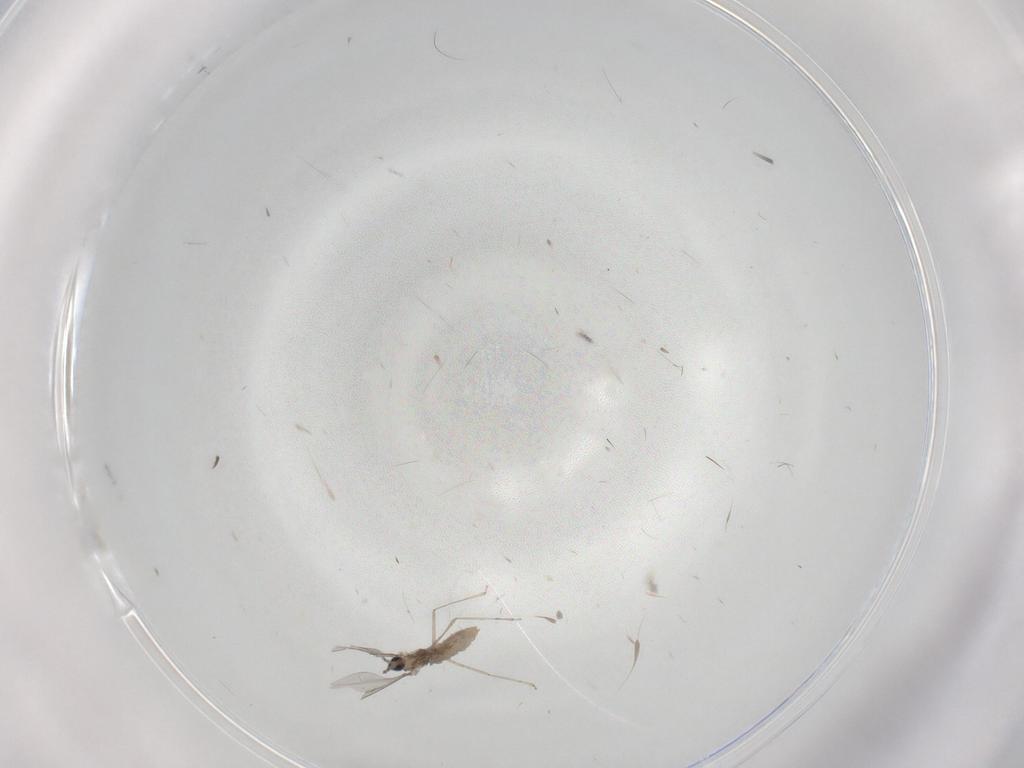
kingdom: Animalia
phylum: Arthropoda
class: Insecta
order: Diptera
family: Cecidomyiidae
